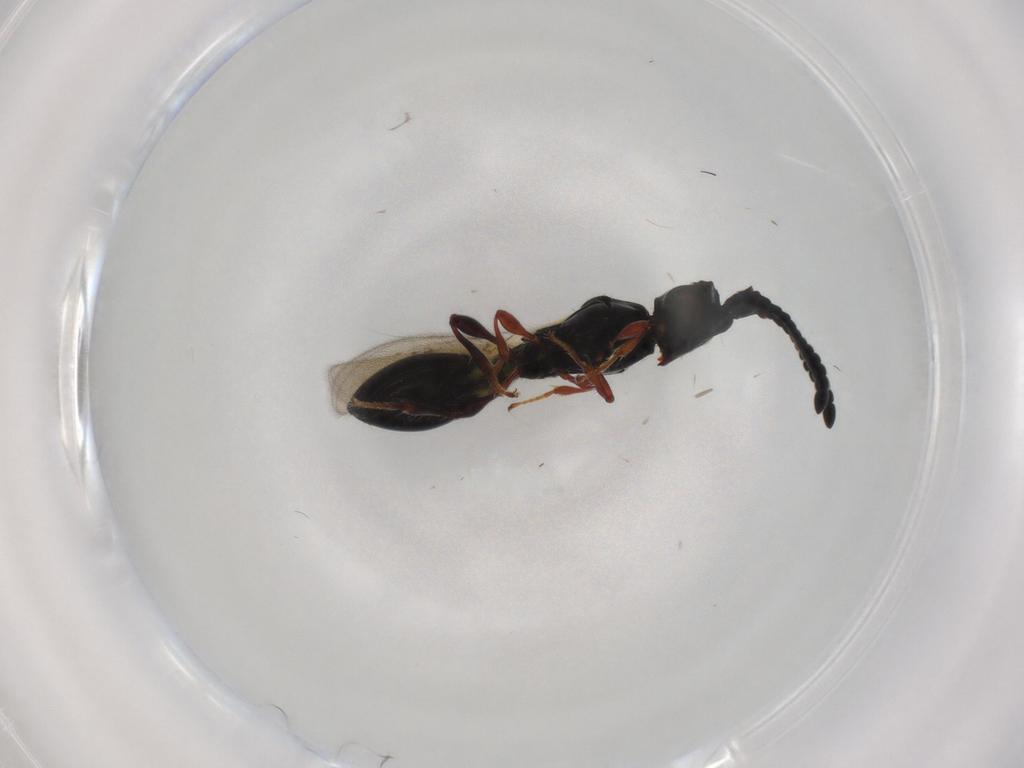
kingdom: Animalia
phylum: Arthropoda
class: Insecta
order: Hymenoptera
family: Diapriidae
